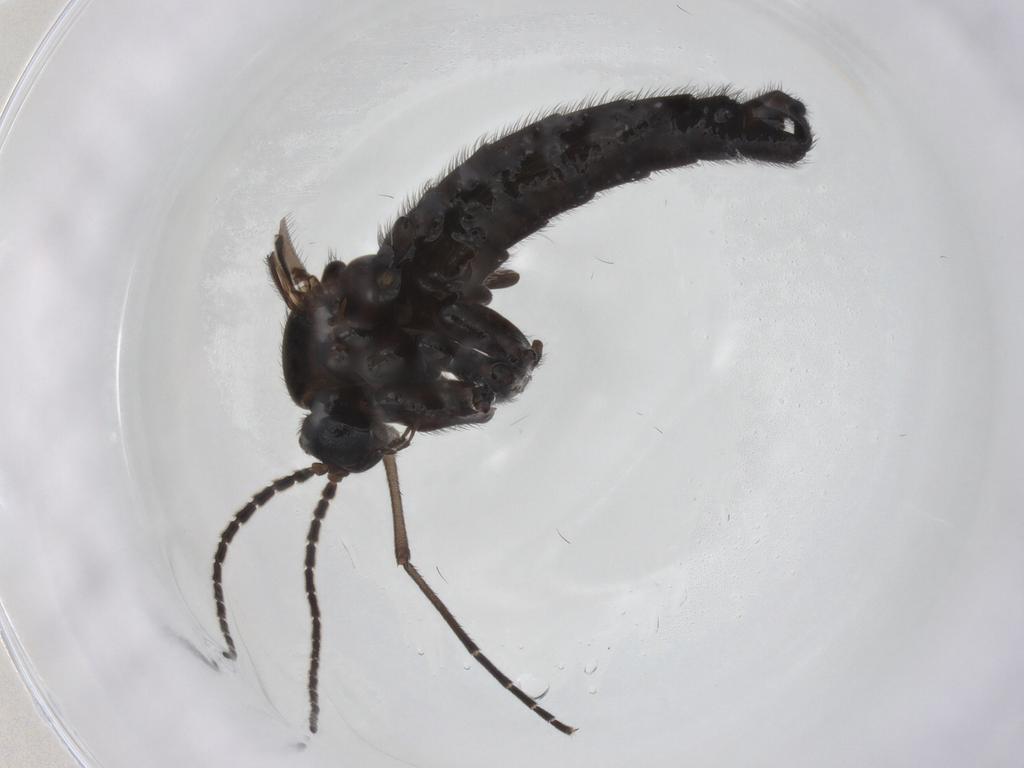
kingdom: Animalia
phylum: Arthropoda
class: Insecta
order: Diptera
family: Sciaridae
